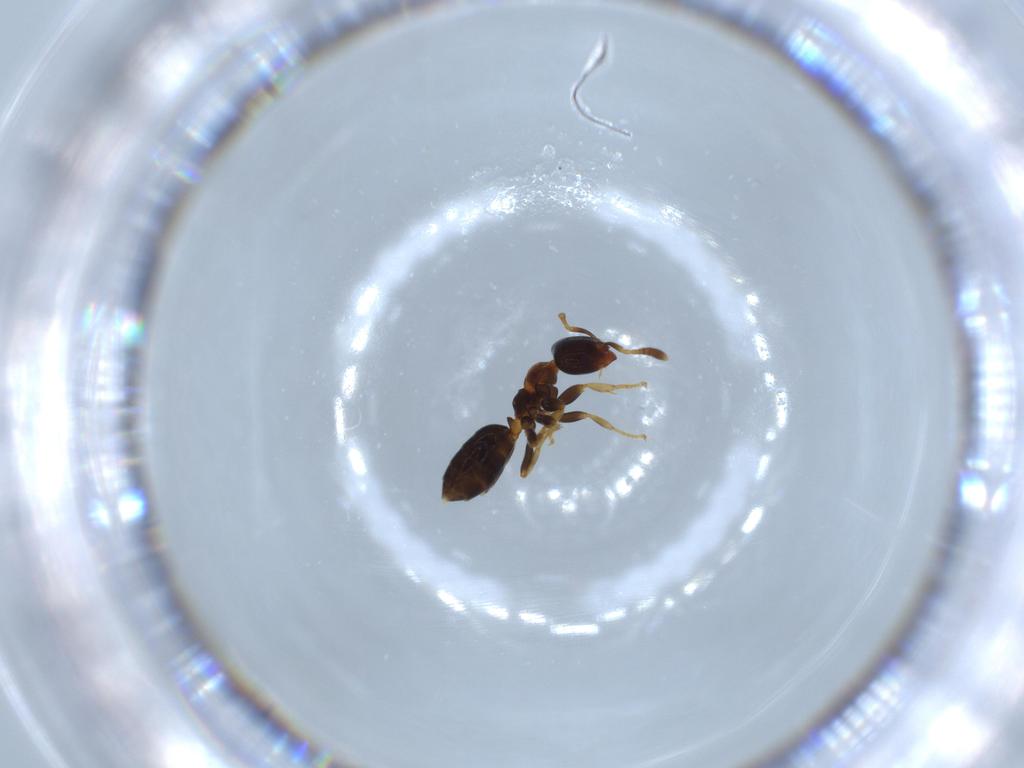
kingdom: Animalia
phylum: Arthropoda
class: Insecta
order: Hymenoptera
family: Formicidae
